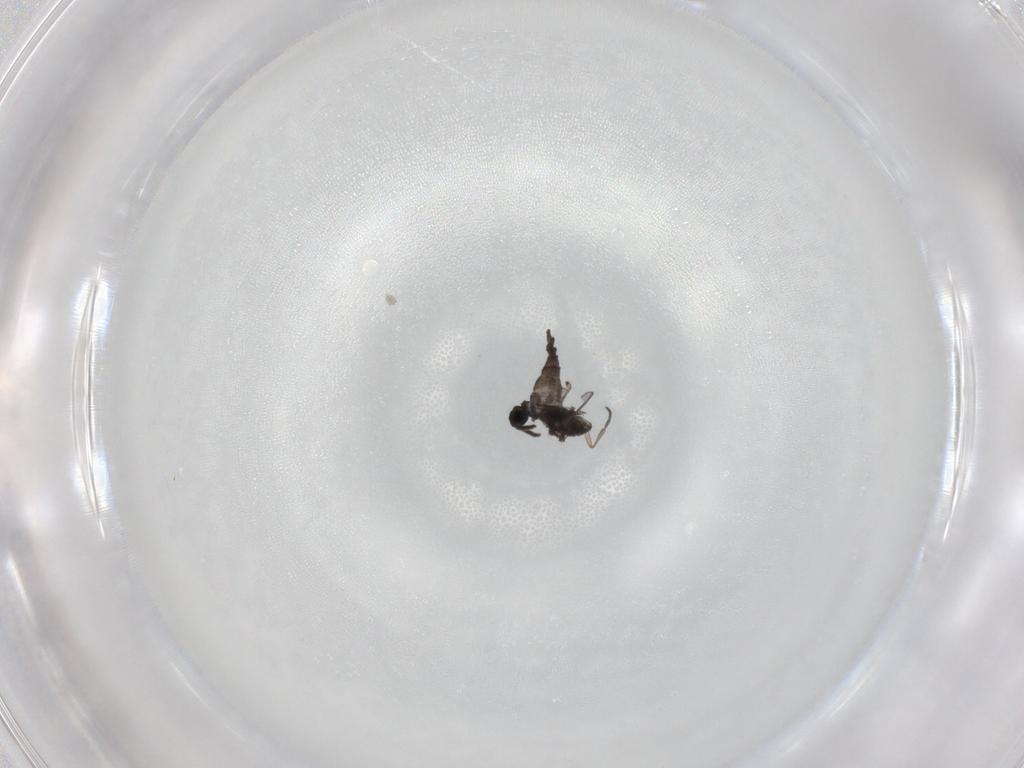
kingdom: Animalia
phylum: Arthropoda
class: Insecta
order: Diptera
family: Sciaridae
